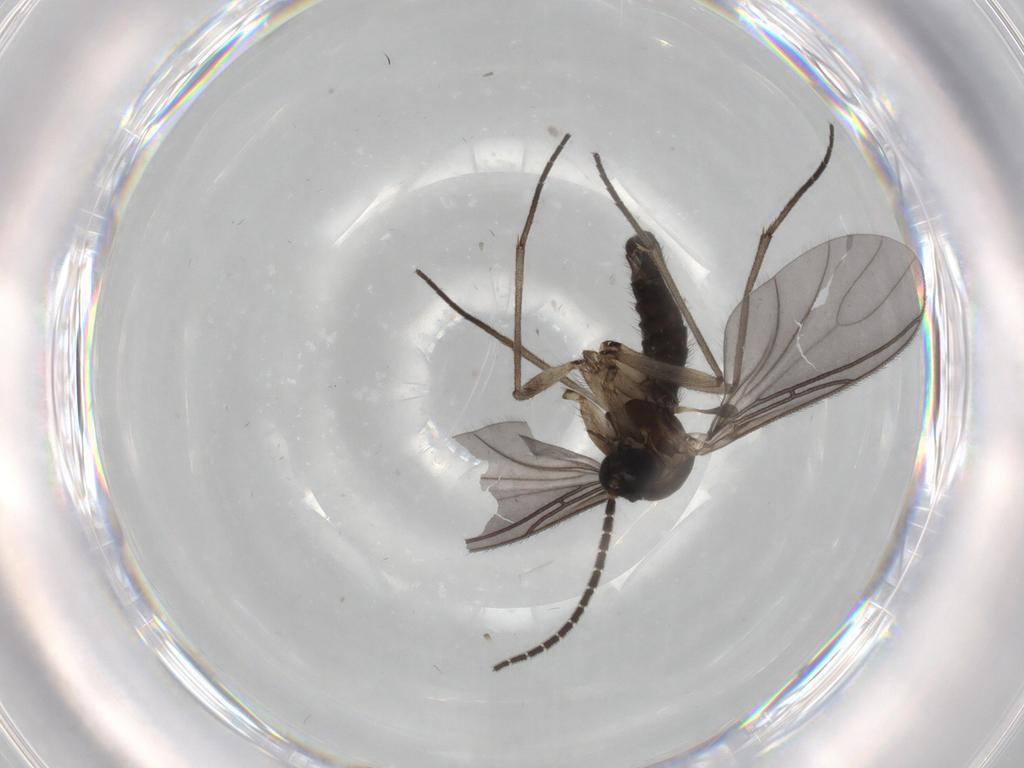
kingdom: Animalia
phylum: Arthropoda
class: Insecta
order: Diptera
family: Sciaridae
